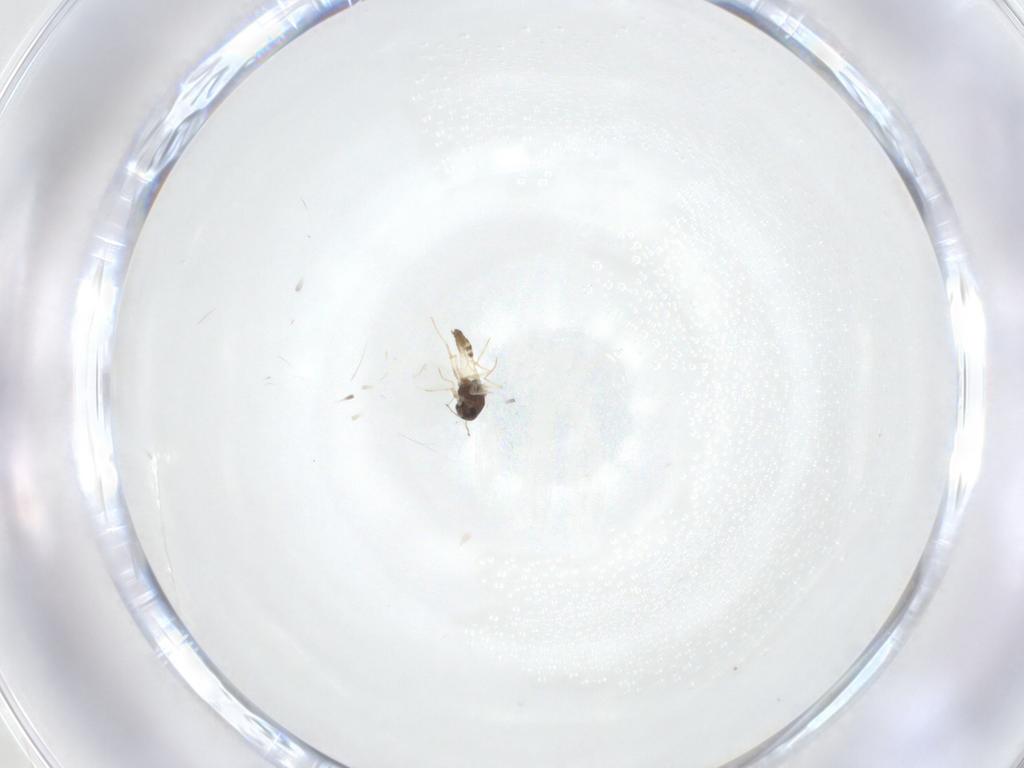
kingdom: Animalia
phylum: Arthropoda
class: Insecta
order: Diptera
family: Chironomidae
